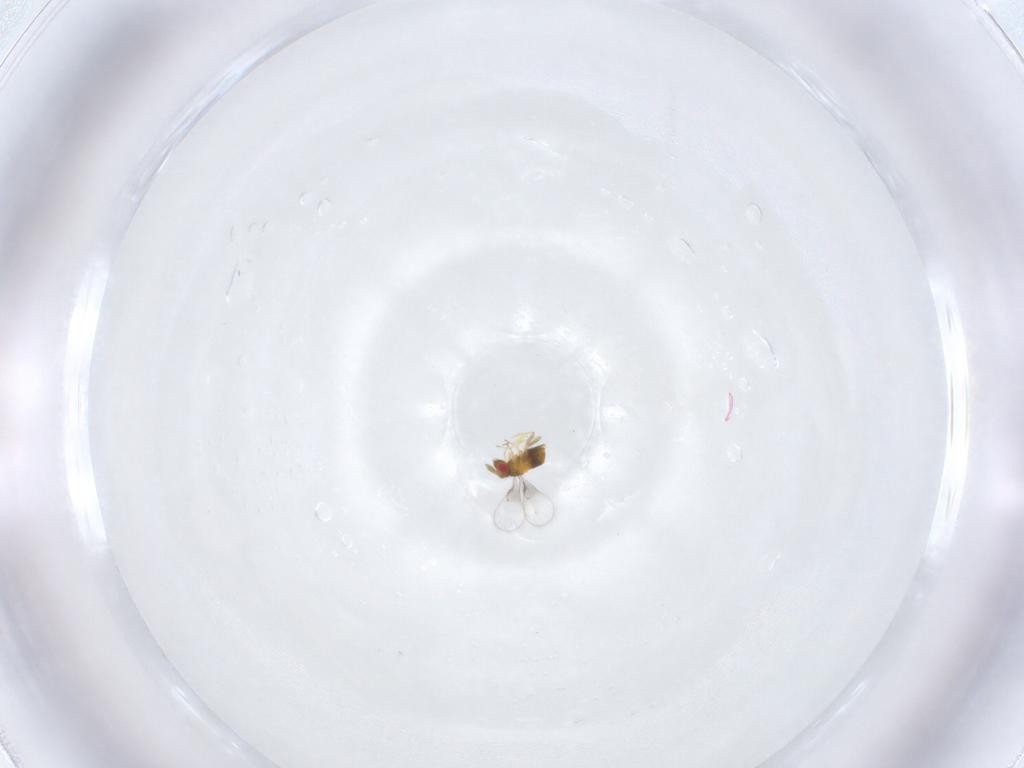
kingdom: Animalia
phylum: Arthropoda
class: Insecta
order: Hymenoptera
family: Trichogrammatidae
